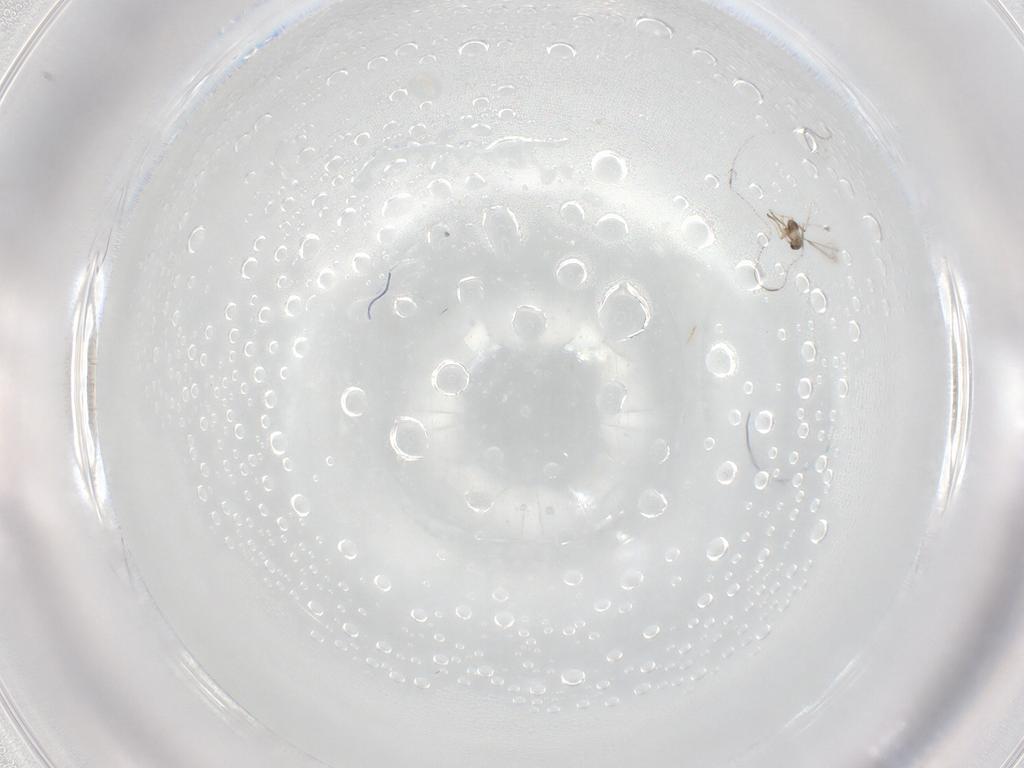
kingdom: Animalia
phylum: Arthropoda
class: Insecta
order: Hymenoptera
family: Mymaridae
